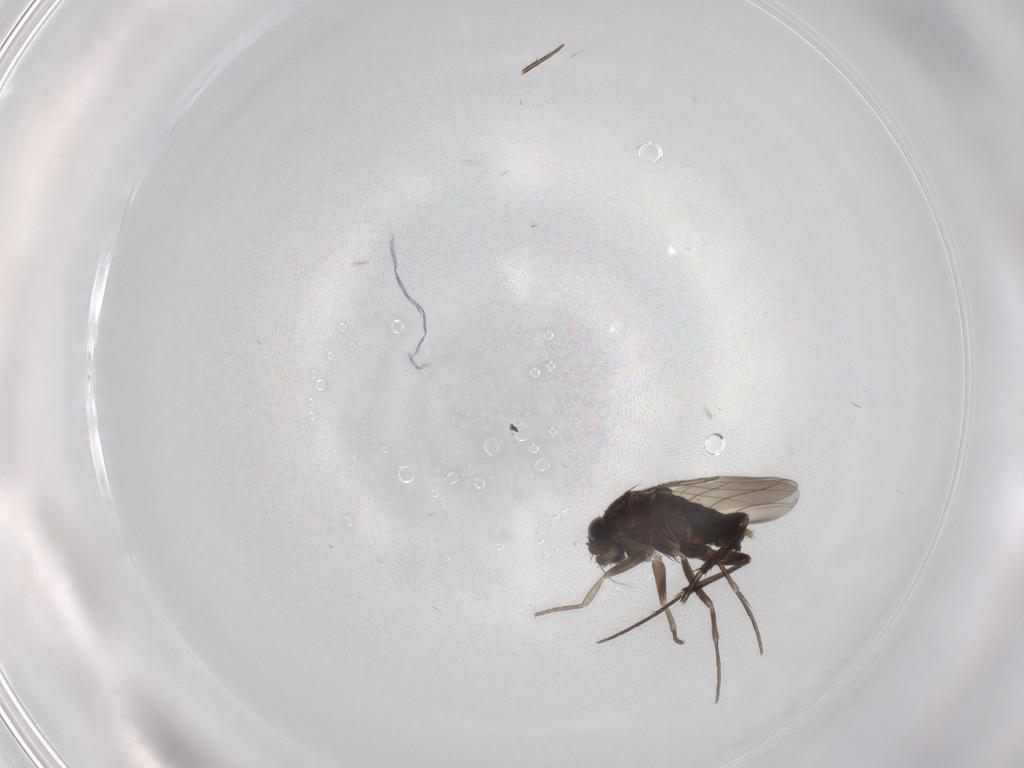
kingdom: Animalia
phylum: Arthropoda
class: Insecta
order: Diptera
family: Phoridae
